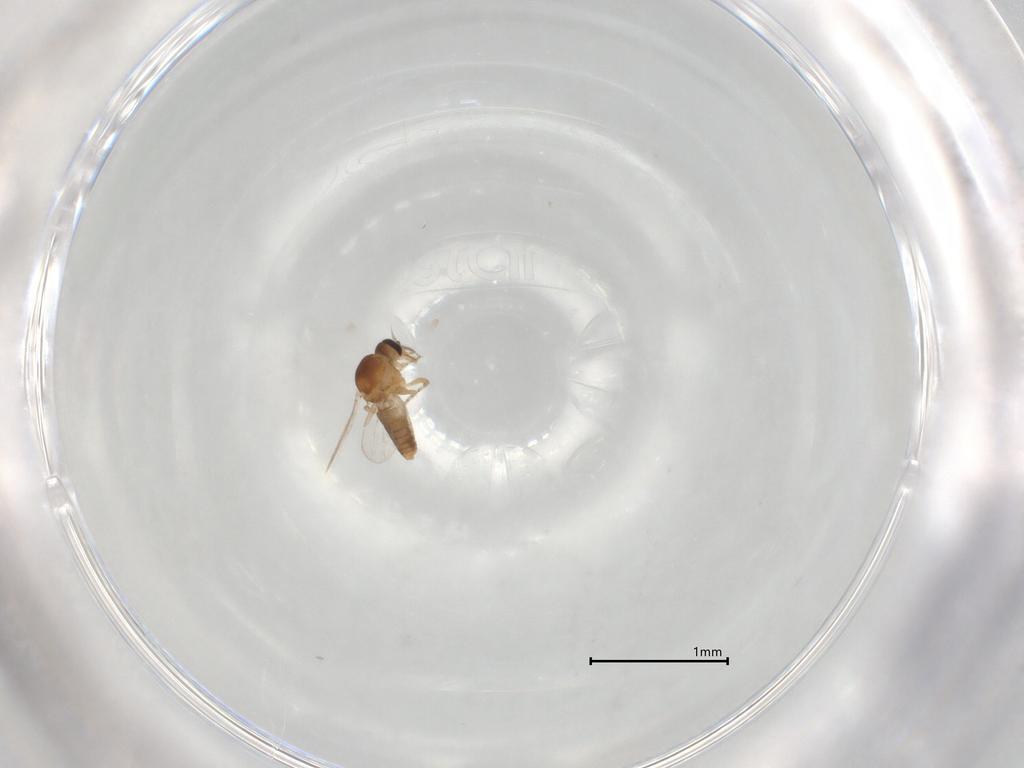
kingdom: Animalia
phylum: Arthropoda
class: Insecta
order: Diptera
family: Ceratopogonidae
